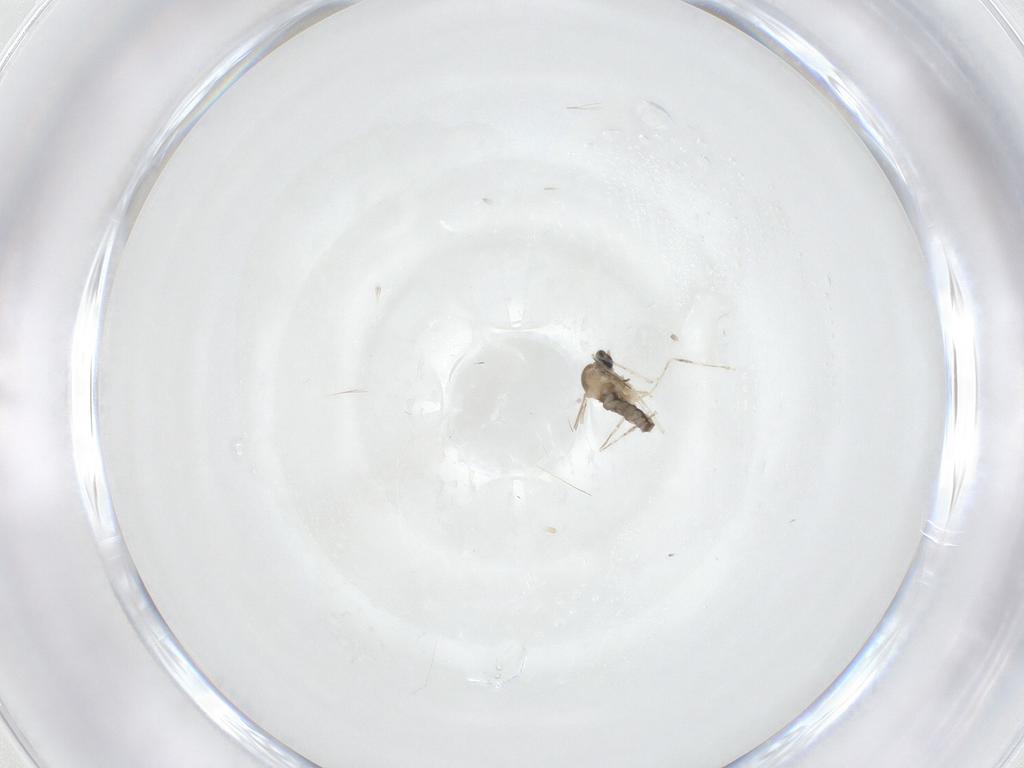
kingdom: Animalia
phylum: Arthropoda
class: Insecta
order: Diptera
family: Cecidomyiidae
